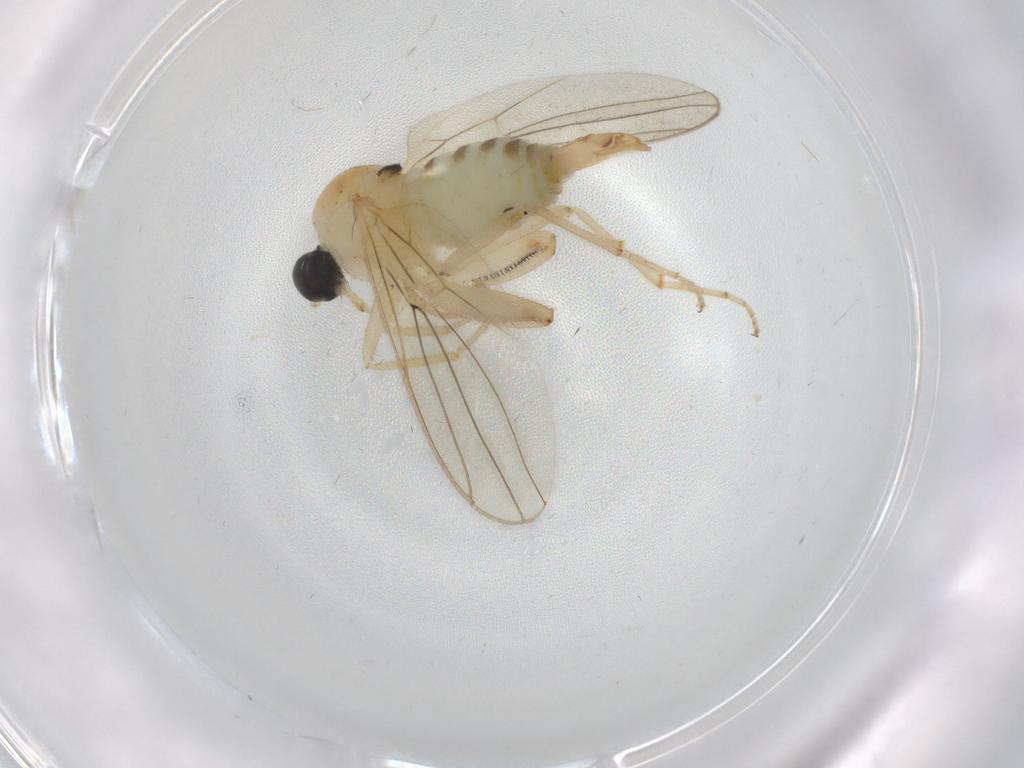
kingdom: Animalia
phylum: Arthropoda
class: Insecta
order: Diptera
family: Hybotidae
